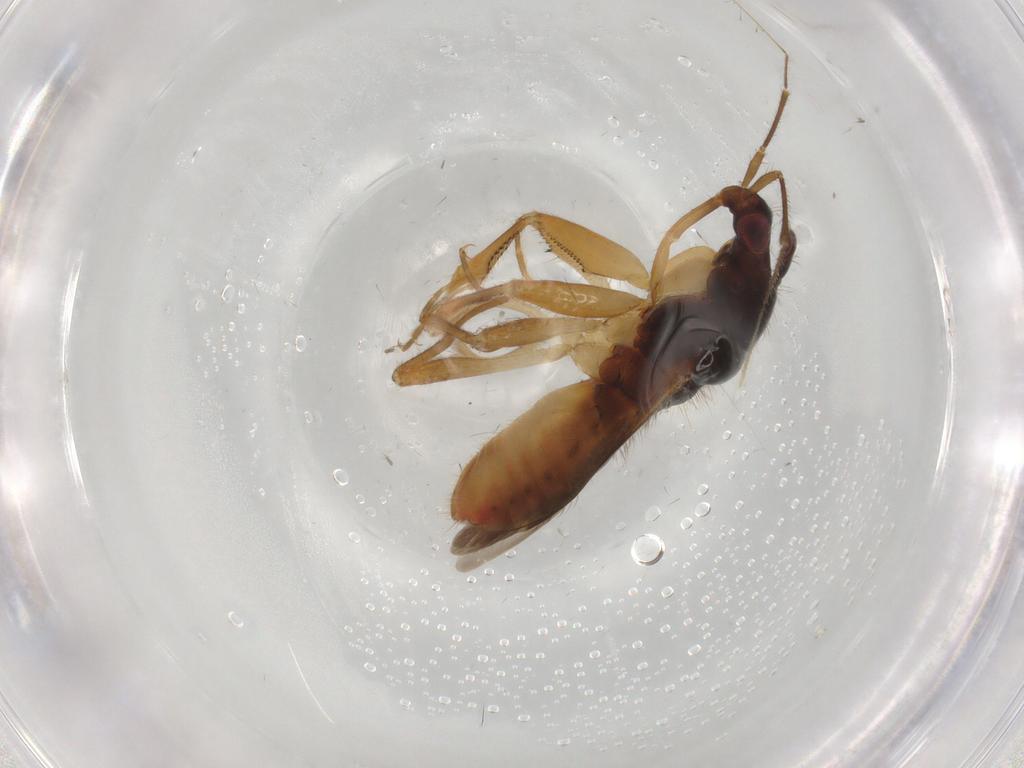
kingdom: Animalia
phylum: Arthropoda
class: Insecta
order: Hemiptera
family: Nabidae
